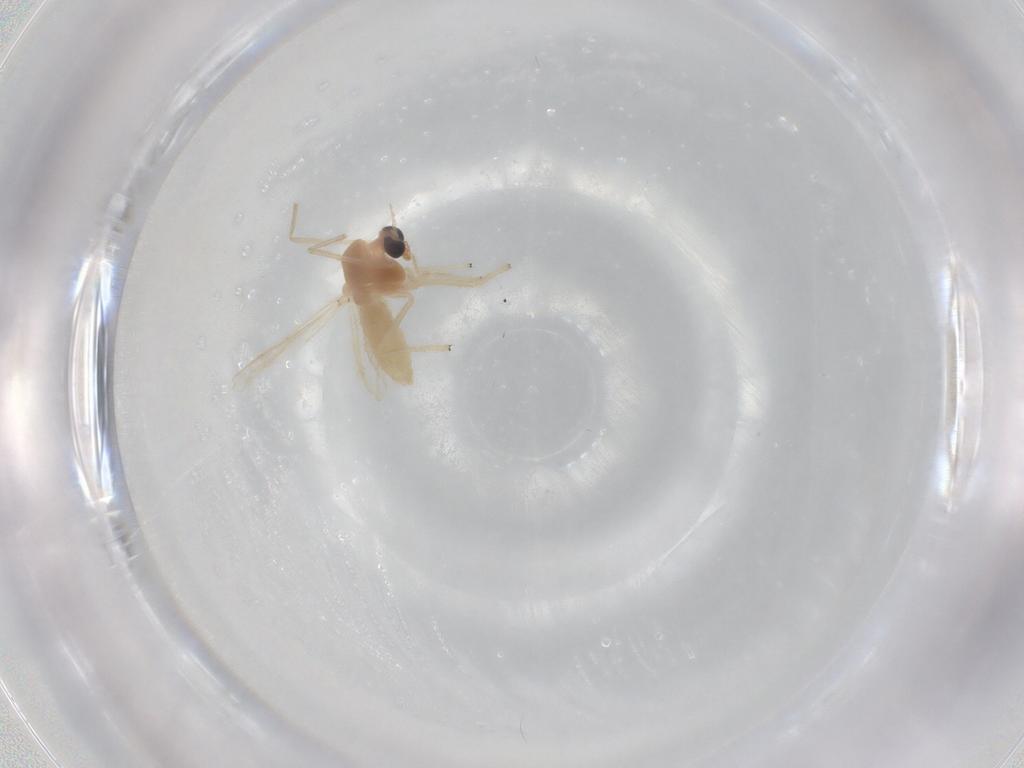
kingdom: Animalia
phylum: Arthropoda
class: Insecta
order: Diptera
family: Chironomidae
